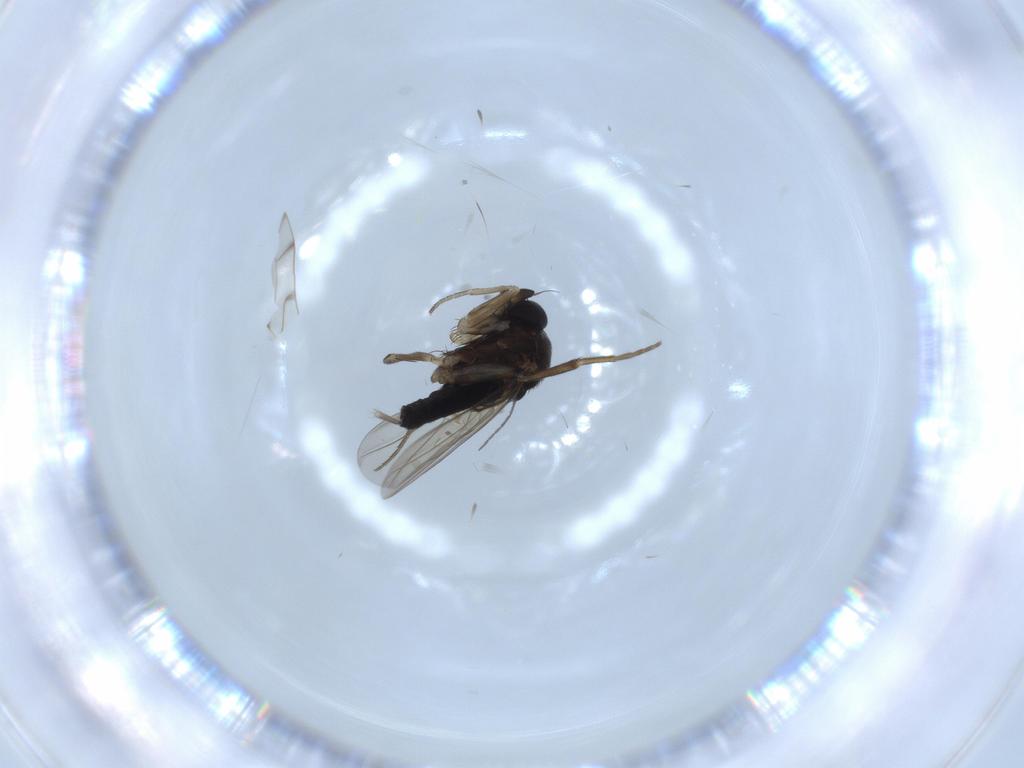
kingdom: Animalia
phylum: Arthropoda
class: Insecta
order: Diptera
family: Phoridae
